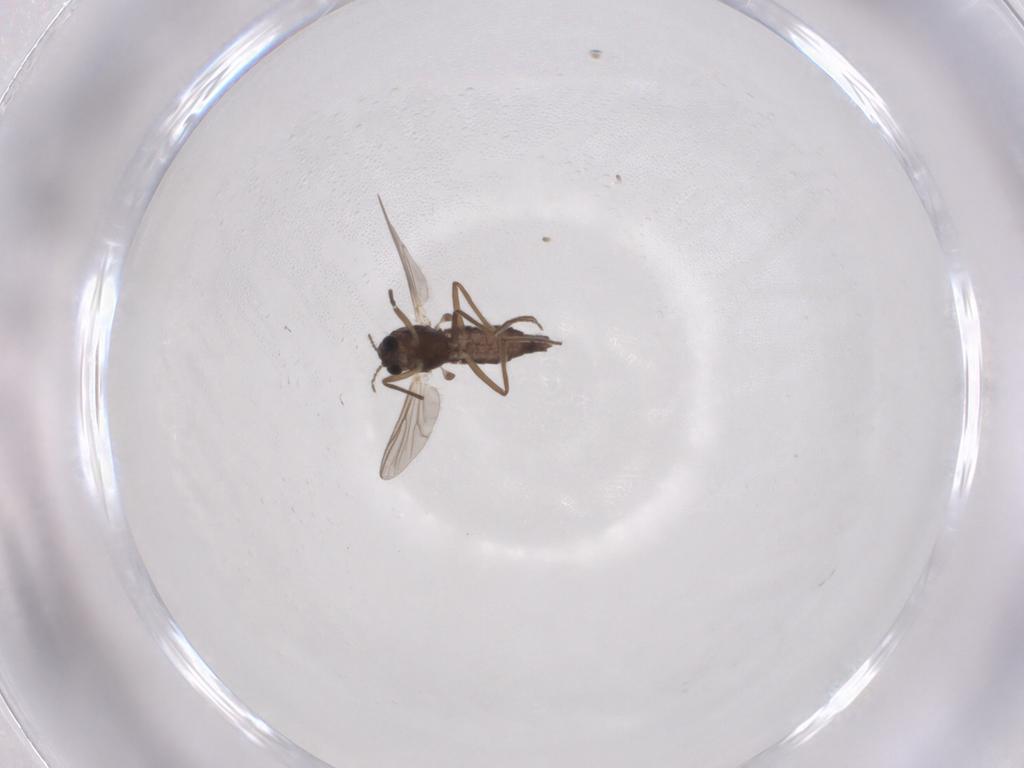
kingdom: Animalia
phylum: Arthropoda
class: Insecta
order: Diptera
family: Chironomidae
